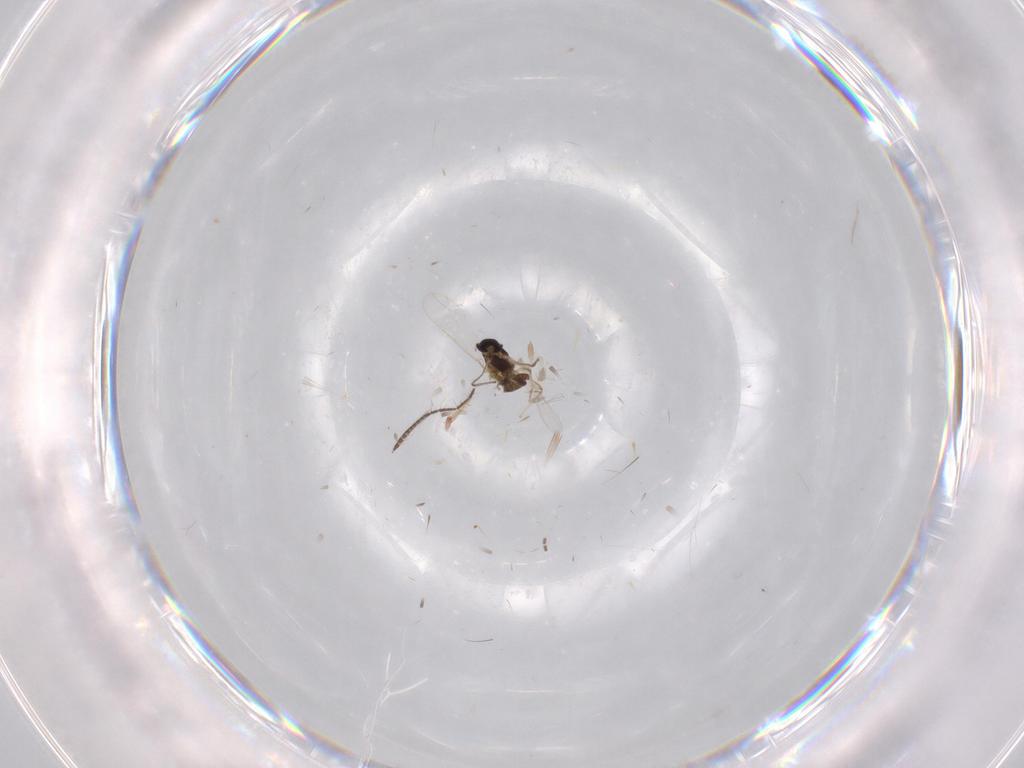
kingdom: Animalia
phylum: Arthropoda
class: Insecta
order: Diptera
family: Chironomidae
